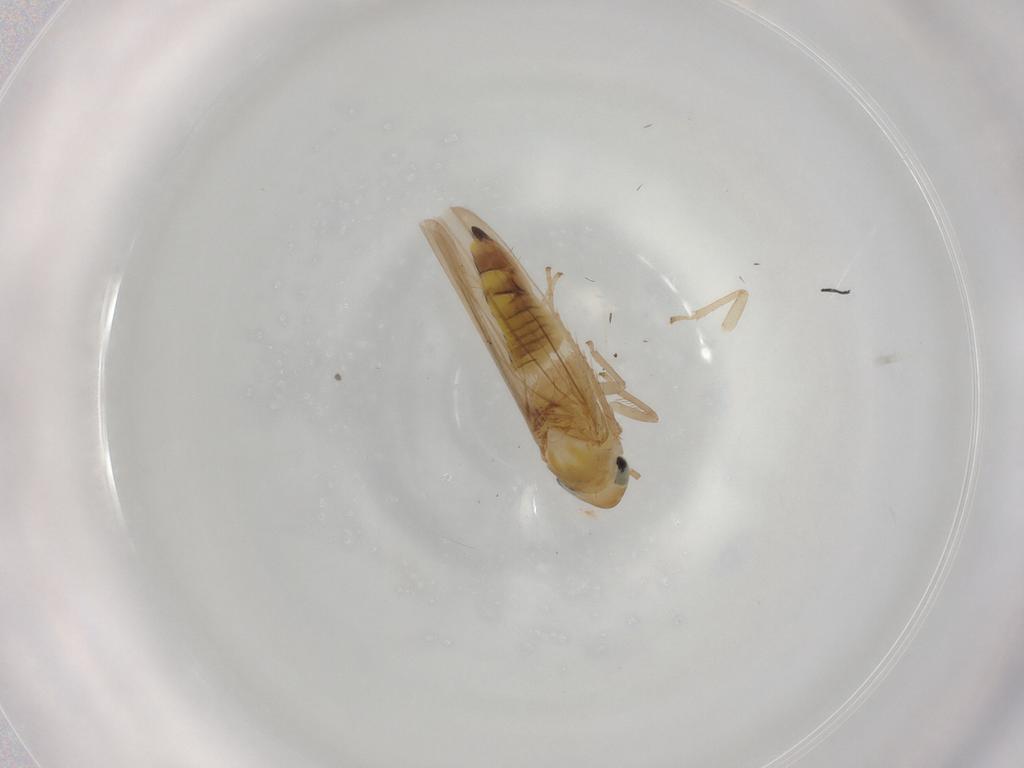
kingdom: Animalia
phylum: Arthropoda
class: Insecta
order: Hemiptera
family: Cicadellidae
